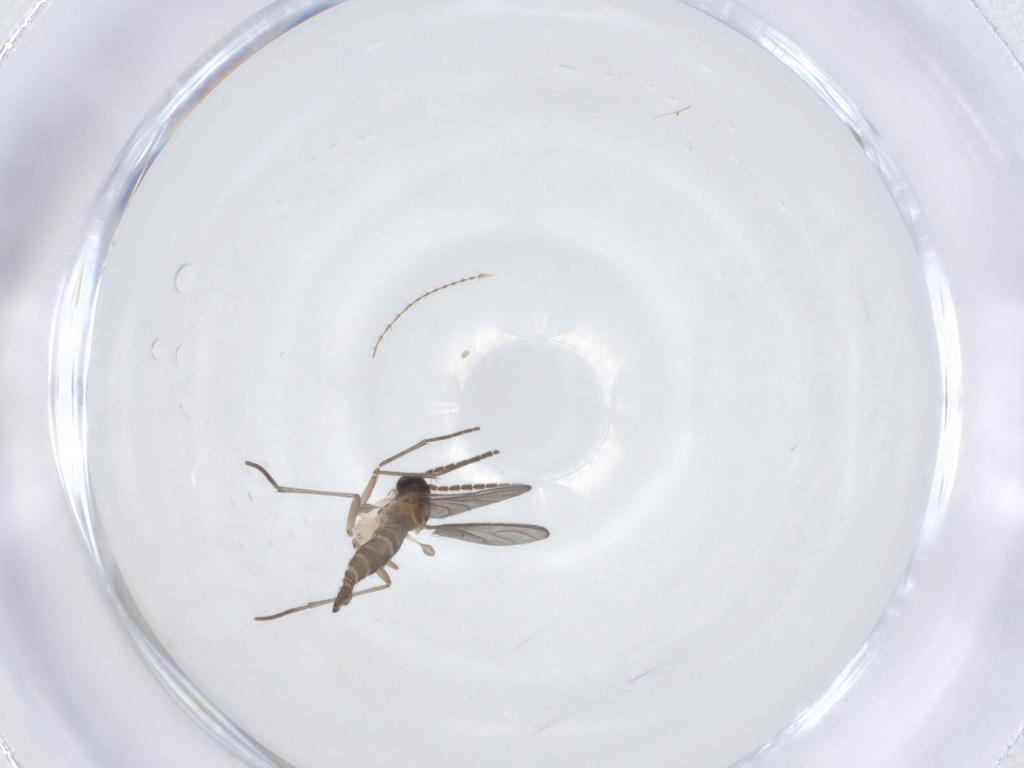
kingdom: Animalia
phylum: Arthropoda
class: Insecta
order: Diptera
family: Sciaridae
